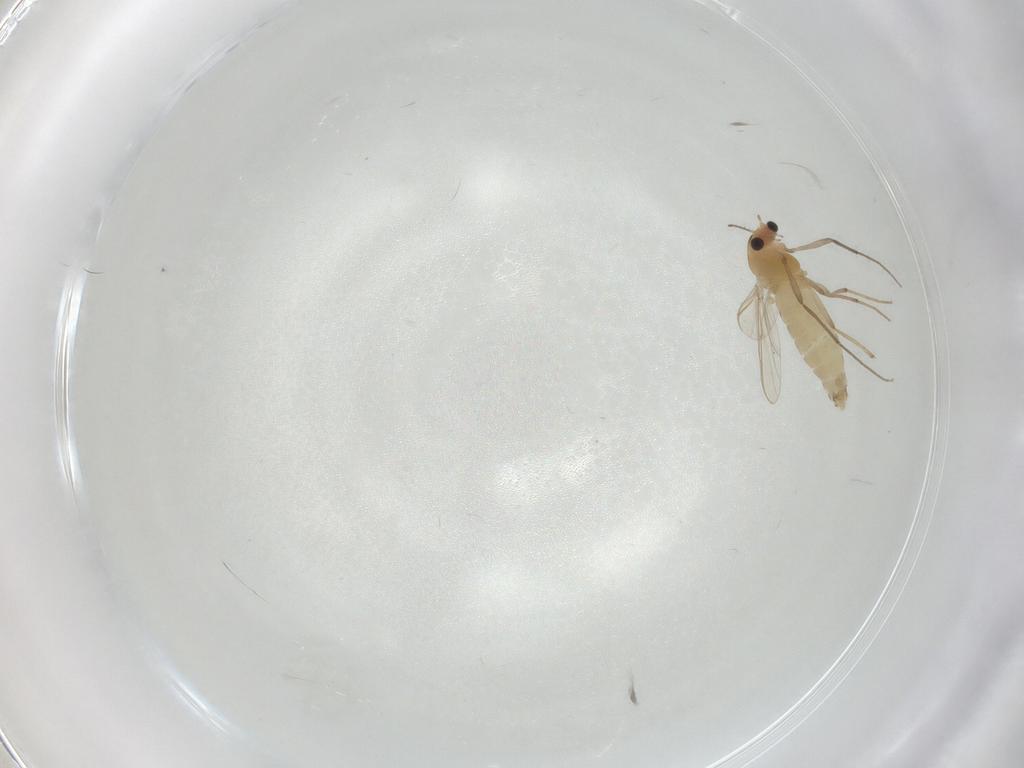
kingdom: Animalia
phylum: Arthropoda
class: Insecta
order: Diptera
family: Chironomidae
